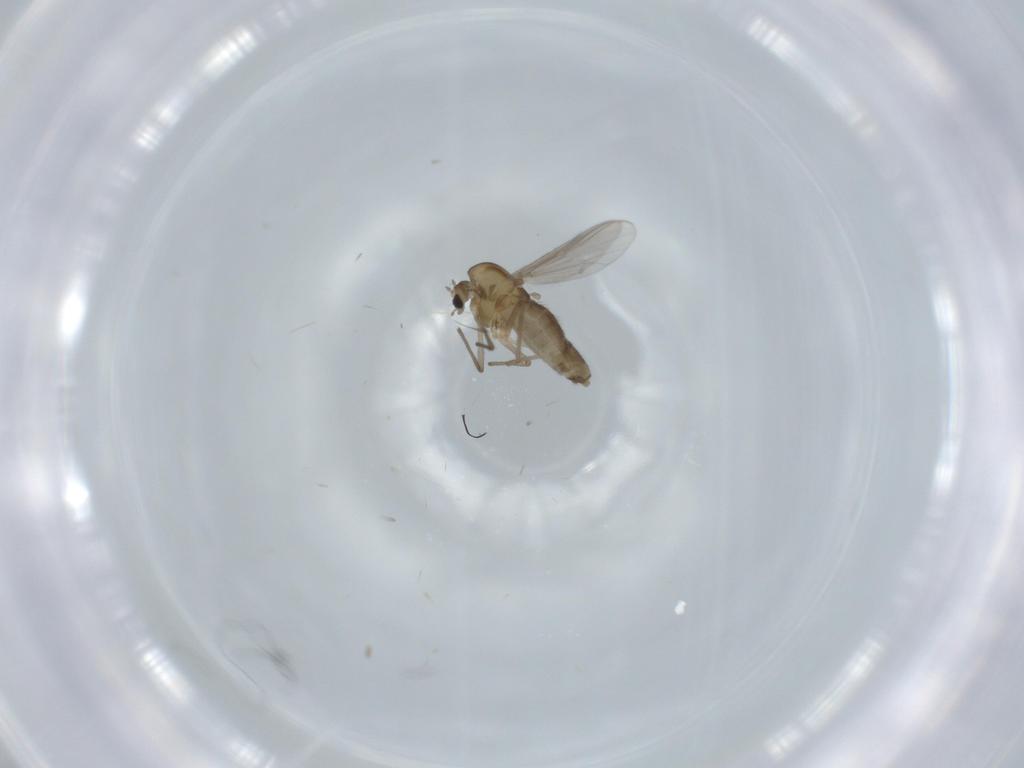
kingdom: Animalia
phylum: Arthropoda
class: Insecta
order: Diptera
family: Chironomidae
